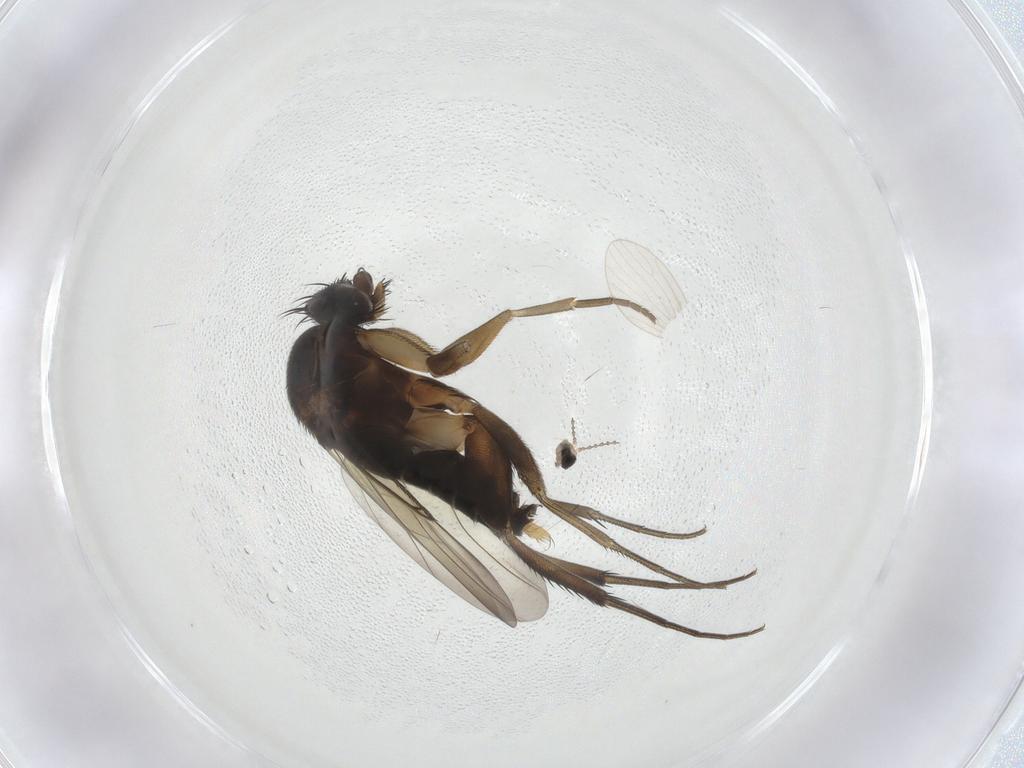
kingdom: Animalia
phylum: Arthropoda
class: Insecta
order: Diptera
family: Cecidomyiidae
